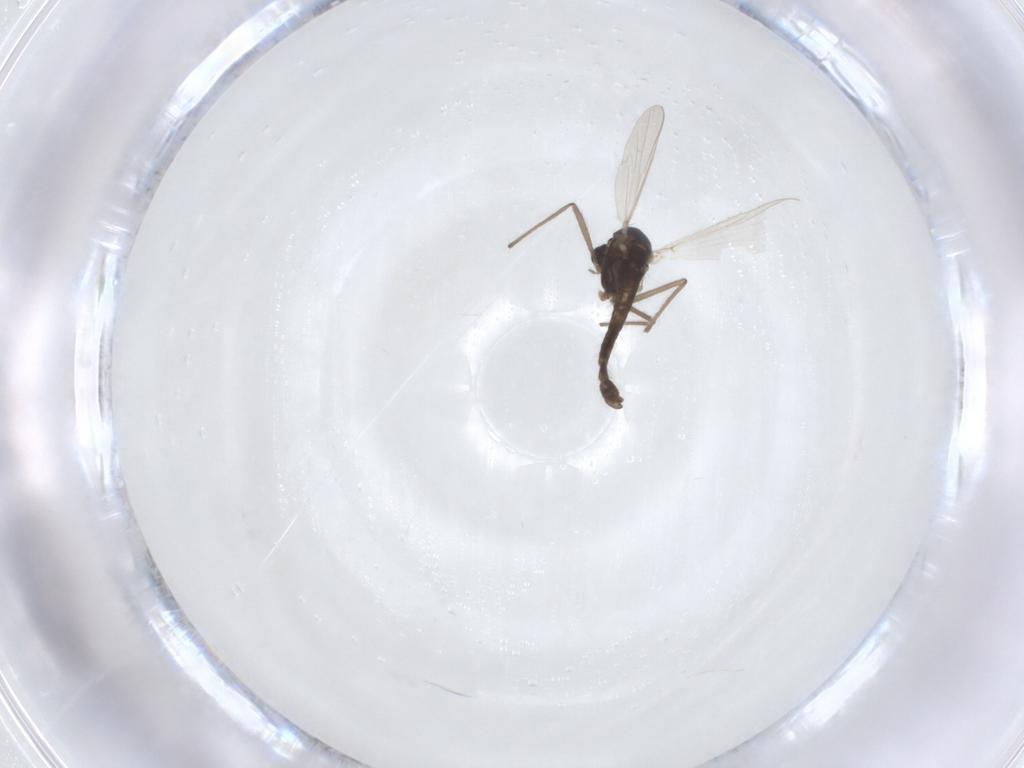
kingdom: Animalia
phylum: Arthropoda
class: Insecta
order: Diptera
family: Chironomidae
